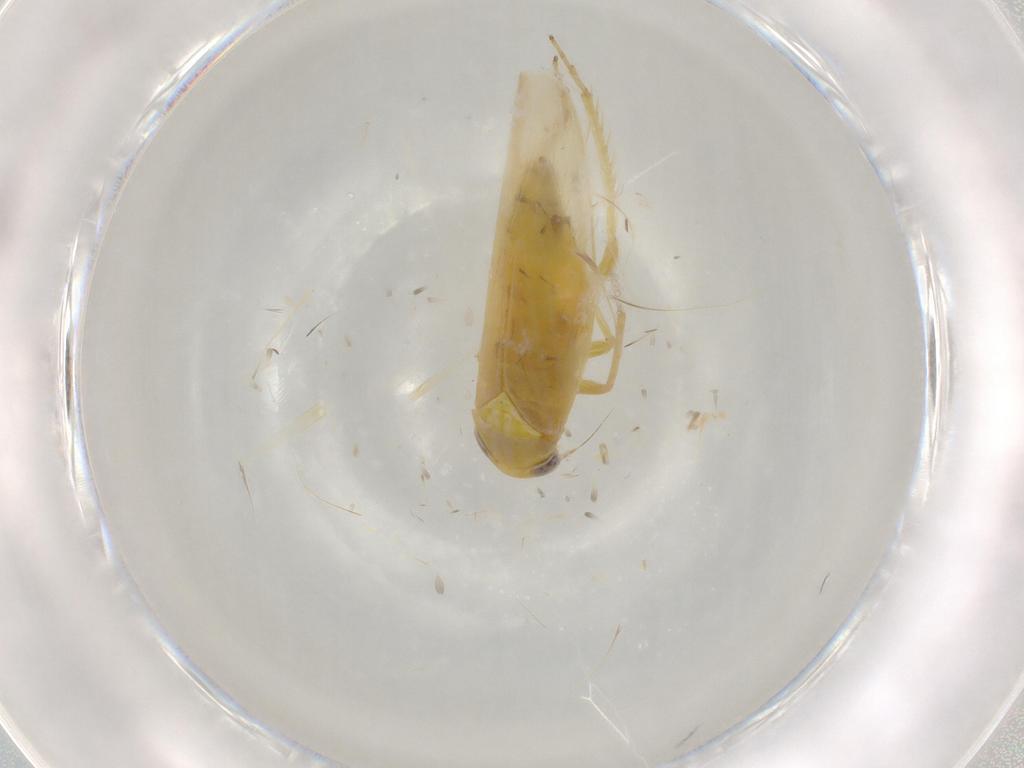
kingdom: Animalia
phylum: Arthropoda
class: Insecta
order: Hemiptera
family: Cicadellidae
